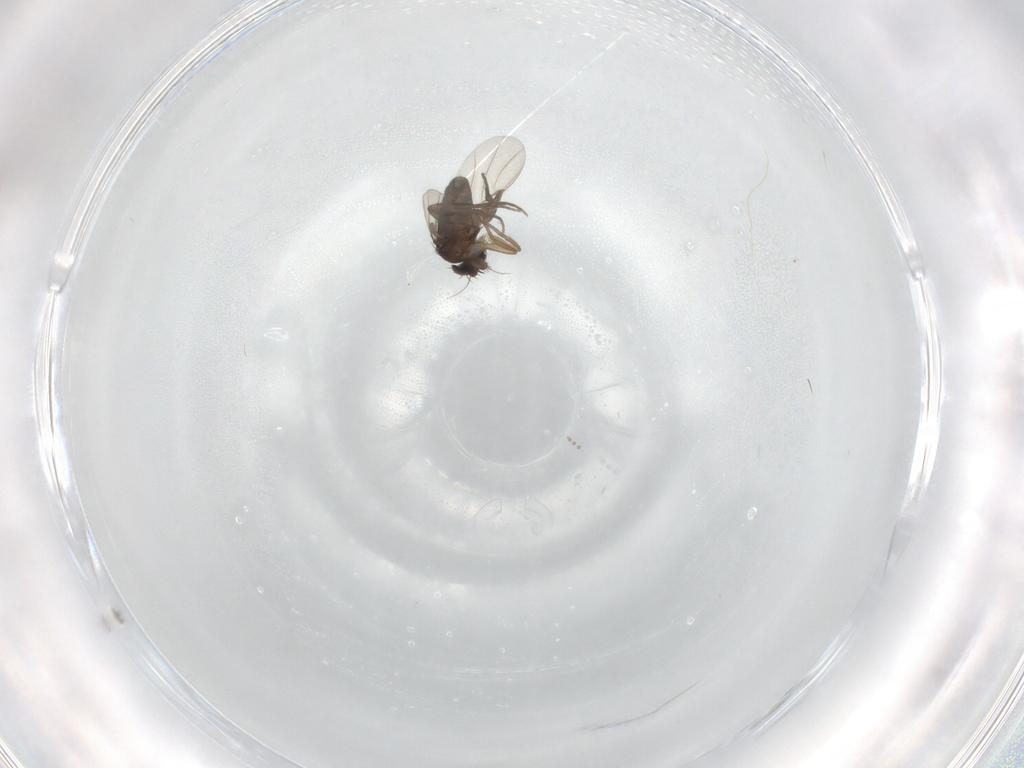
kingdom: Animalia
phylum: Arthropoda
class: Insecta
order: Diptera
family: Phoridae
